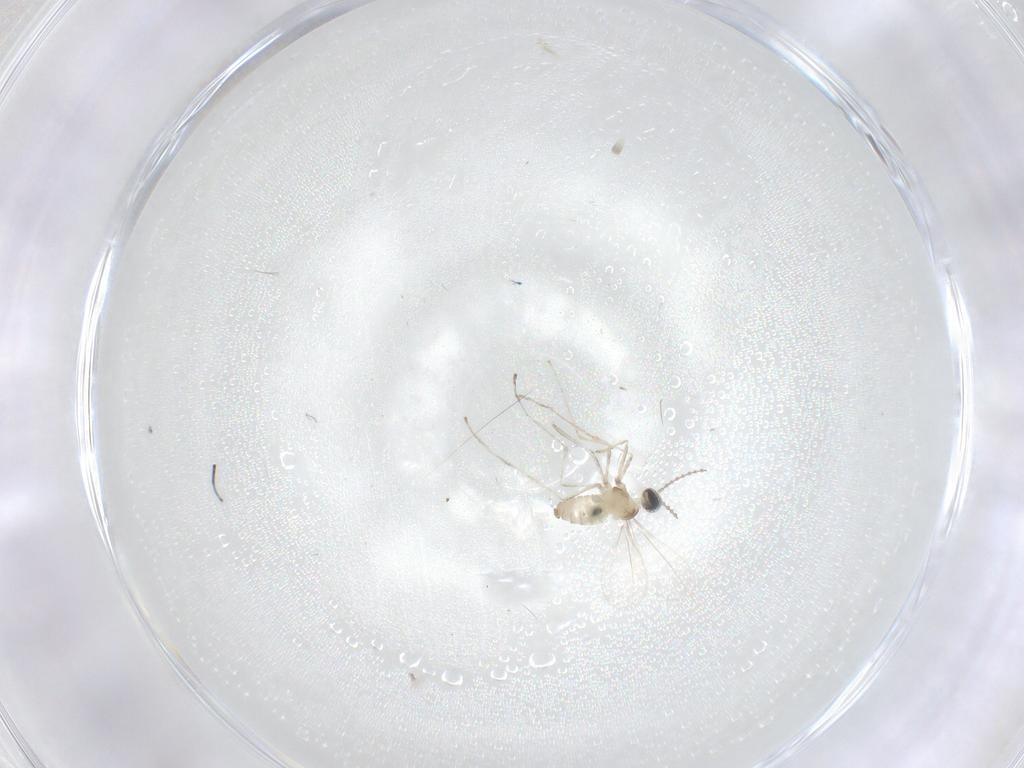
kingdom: Animalia
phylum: Arthropoda
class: Insecta
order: Diptera
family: Cecidomyiidae
